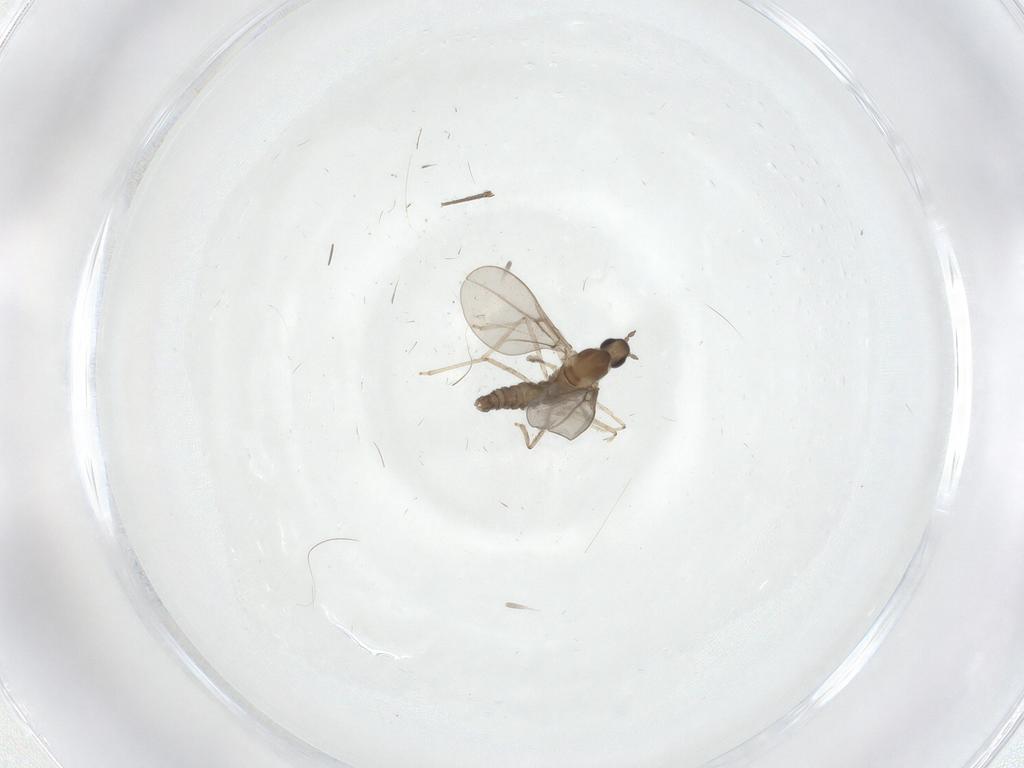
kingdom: Animalia
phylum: Arthropoda
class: Insecta
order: Diptera
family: Cecidomyiidae
